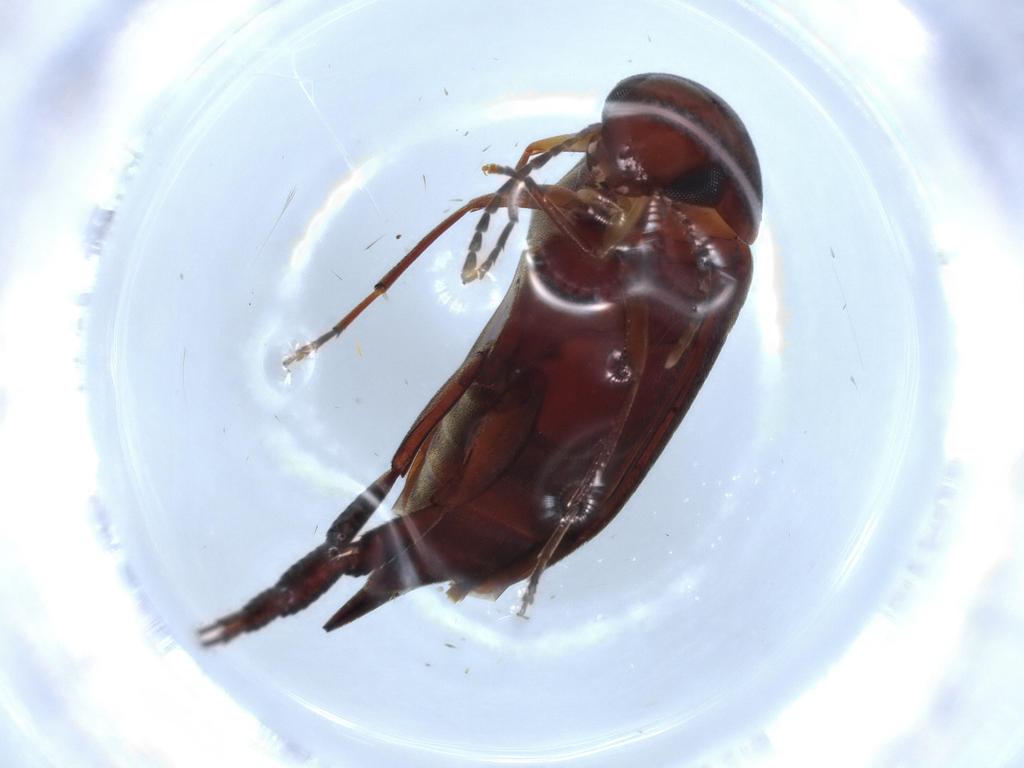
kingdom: Animalia
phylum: Arthropoda
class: Insecta
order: Coleoptera
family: Mordellidae
